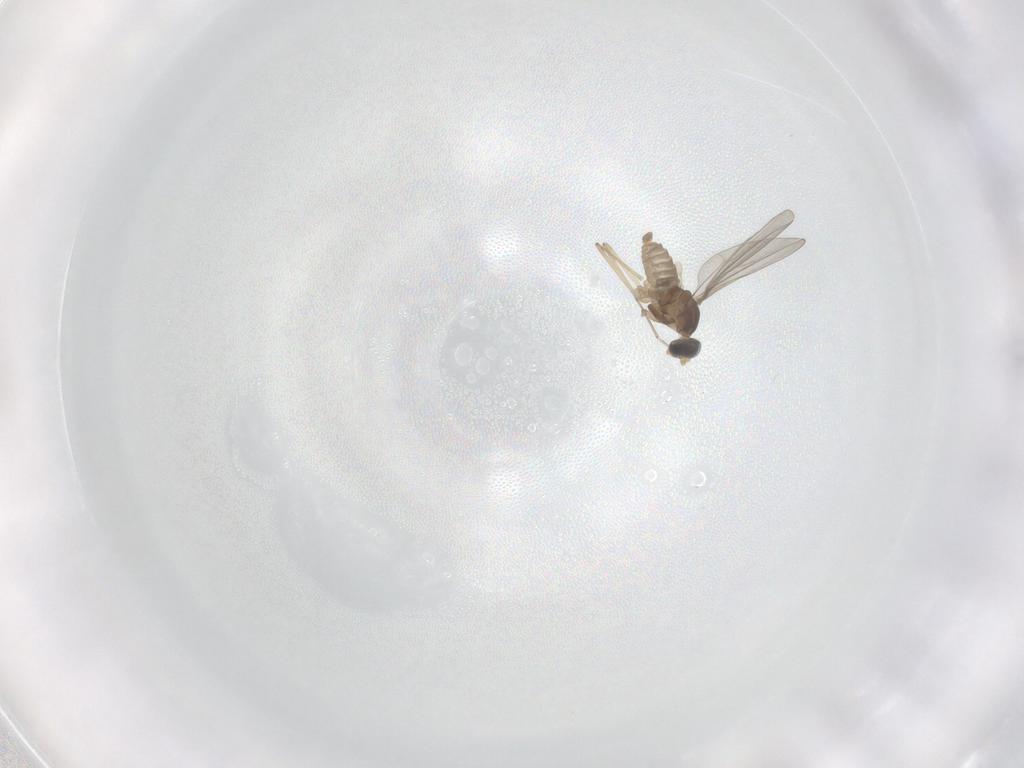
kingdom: Animalia
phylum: Arthropoda
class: Insecta
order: Diptera
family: Cecidomyiidae
